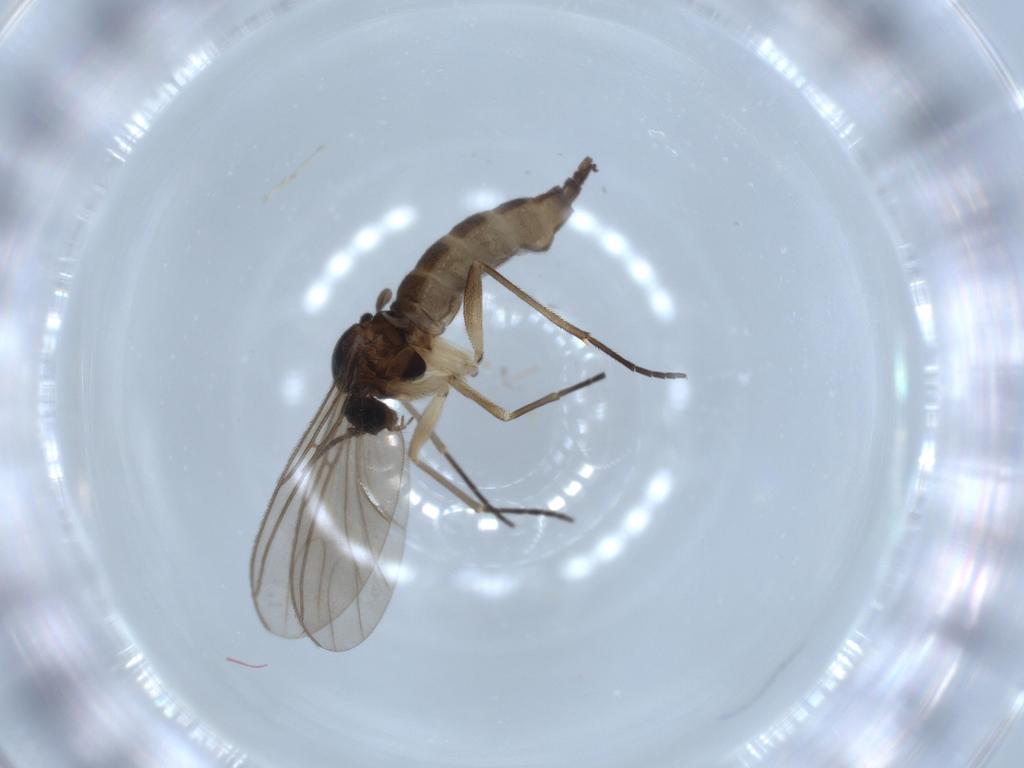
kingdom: Animalia
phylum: Arthropoda
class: Insecta
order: Diptera
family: Hybotidae
